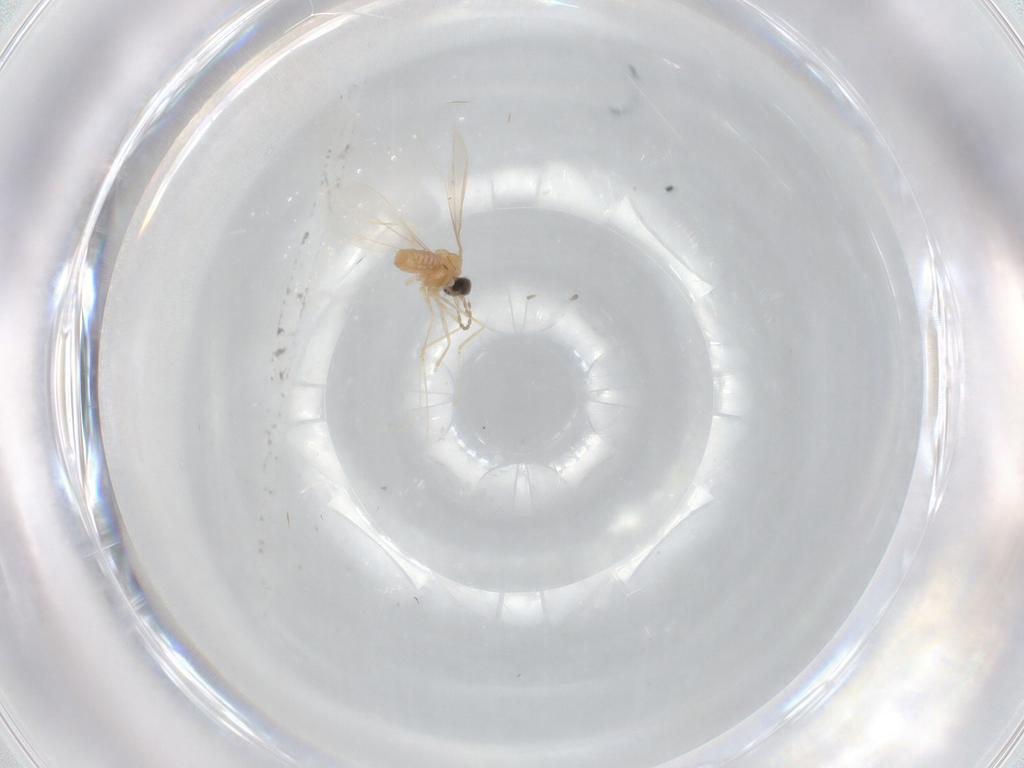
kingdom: Animalia
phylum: Arthropoda
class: Insecta
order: Diptera
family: Cecidomyiidae
